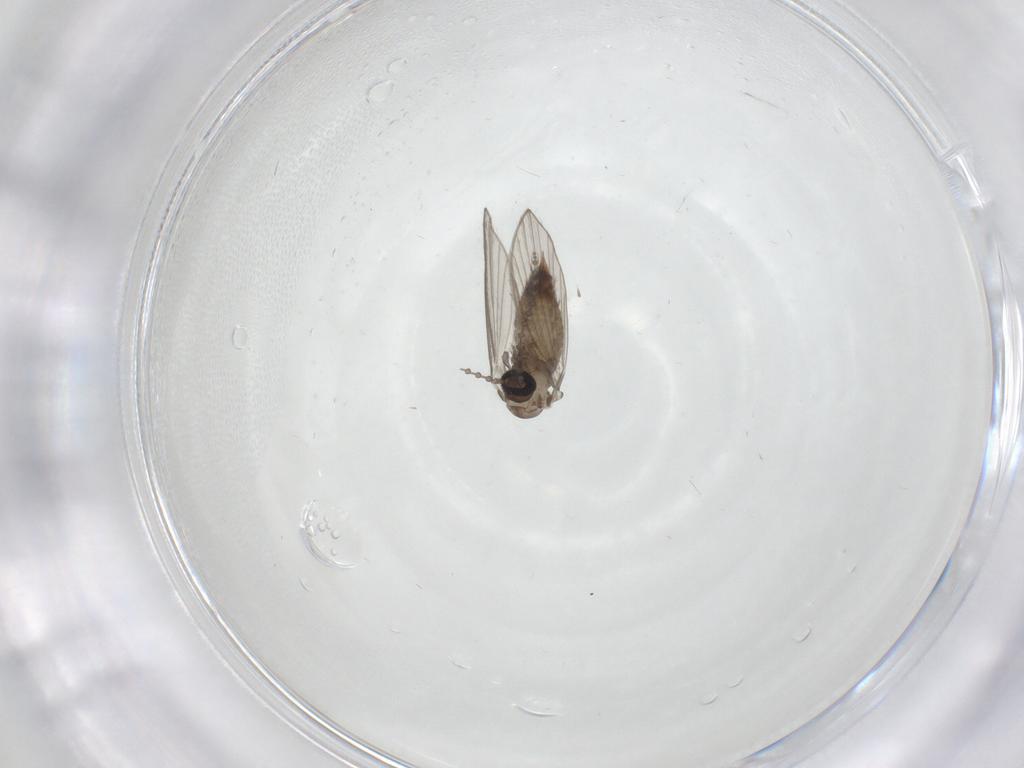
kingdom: Animalia
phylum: Arthropoda
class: Insecta
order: Diptera
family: Psychodidae
